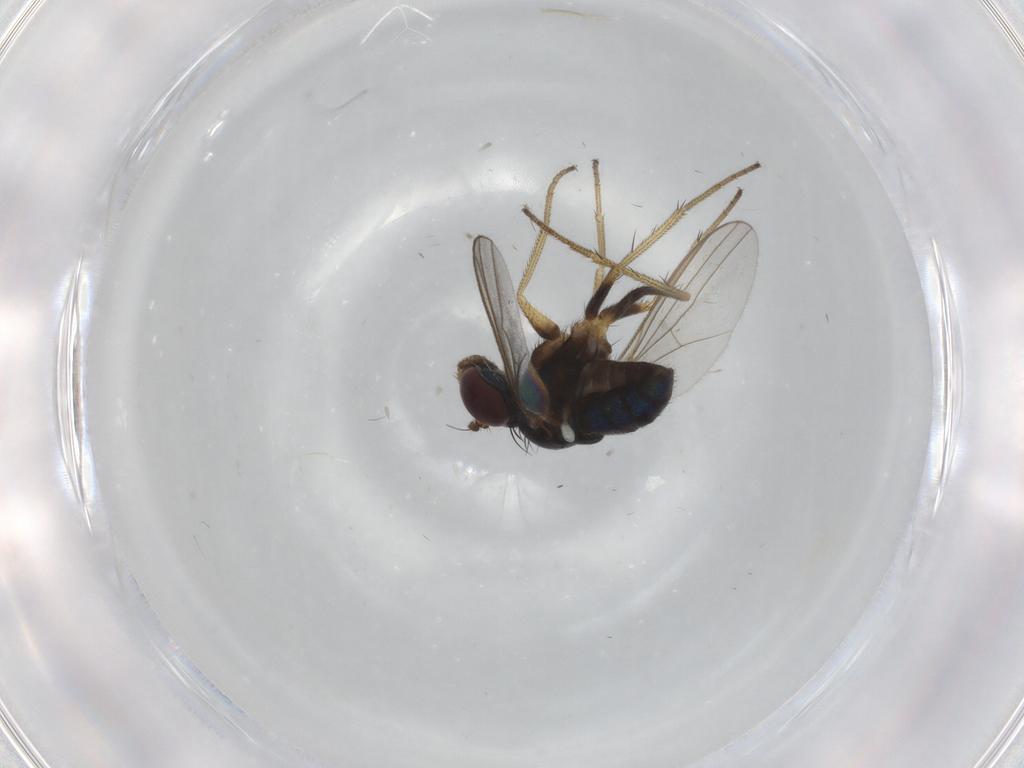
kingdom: Animalia
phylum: Arthropoda
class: Insecta
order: Diptera
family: Dolichopodidae
